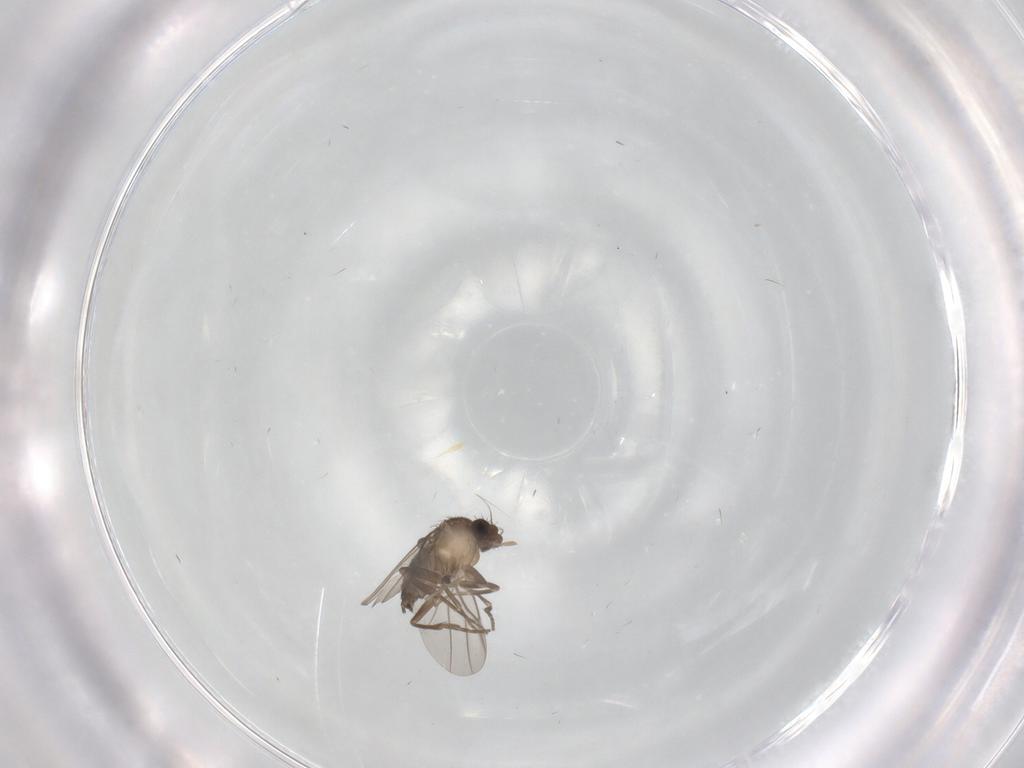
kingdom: Animalia
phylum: Arthropoda
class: Insecta
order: Diptera
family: Phoridae
